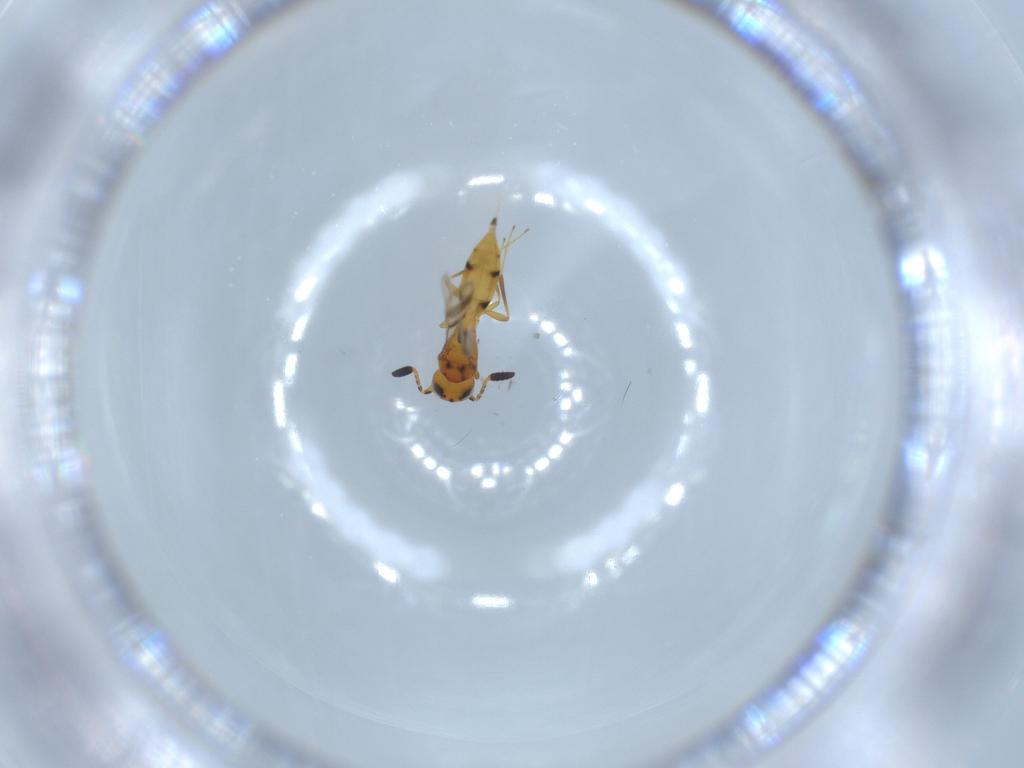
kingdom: Animalia
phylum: Arthropoda
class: Insecta
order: Hymenoptera
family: Scelionidae
